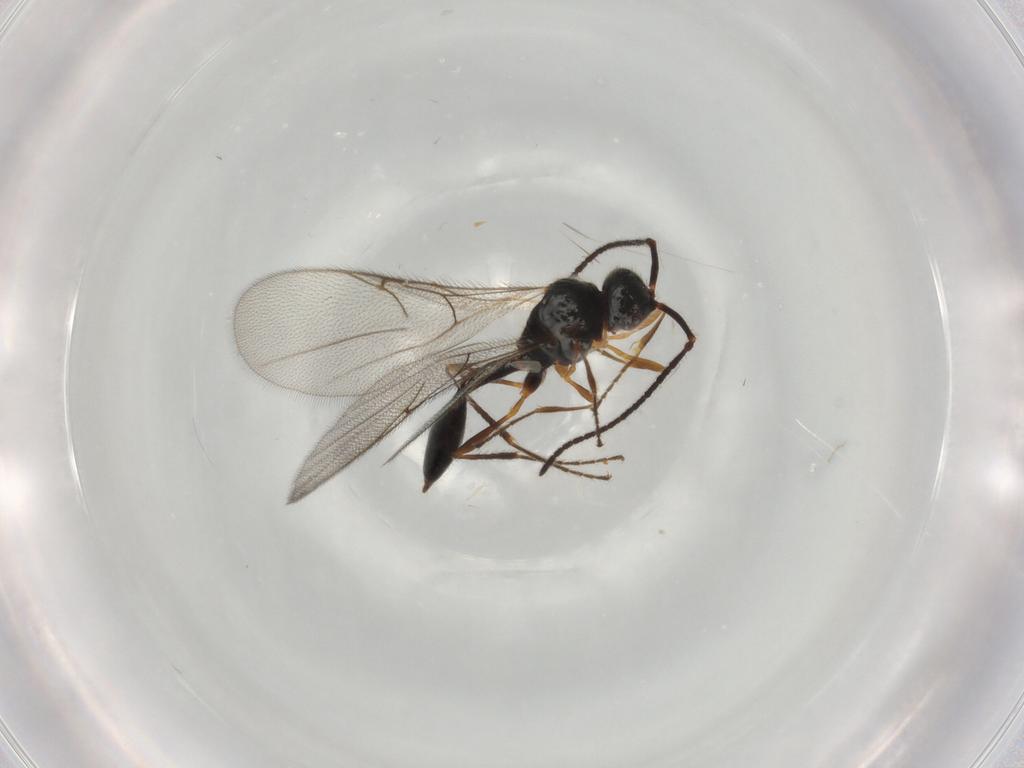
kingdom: Animalia
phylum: Arthropoda
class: Insecta
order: Hymenoptera
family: Diapriidae
